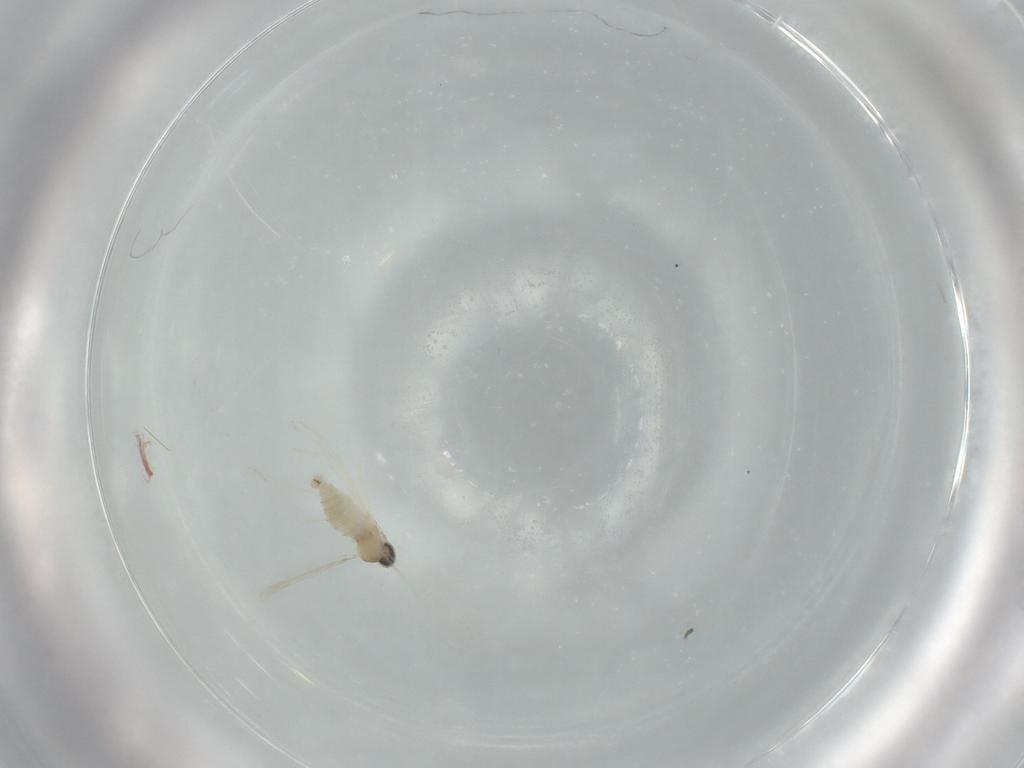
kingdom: Animalia
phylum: Arthropoda
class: Insecta
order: Diptera
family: Cecidomyiidae
